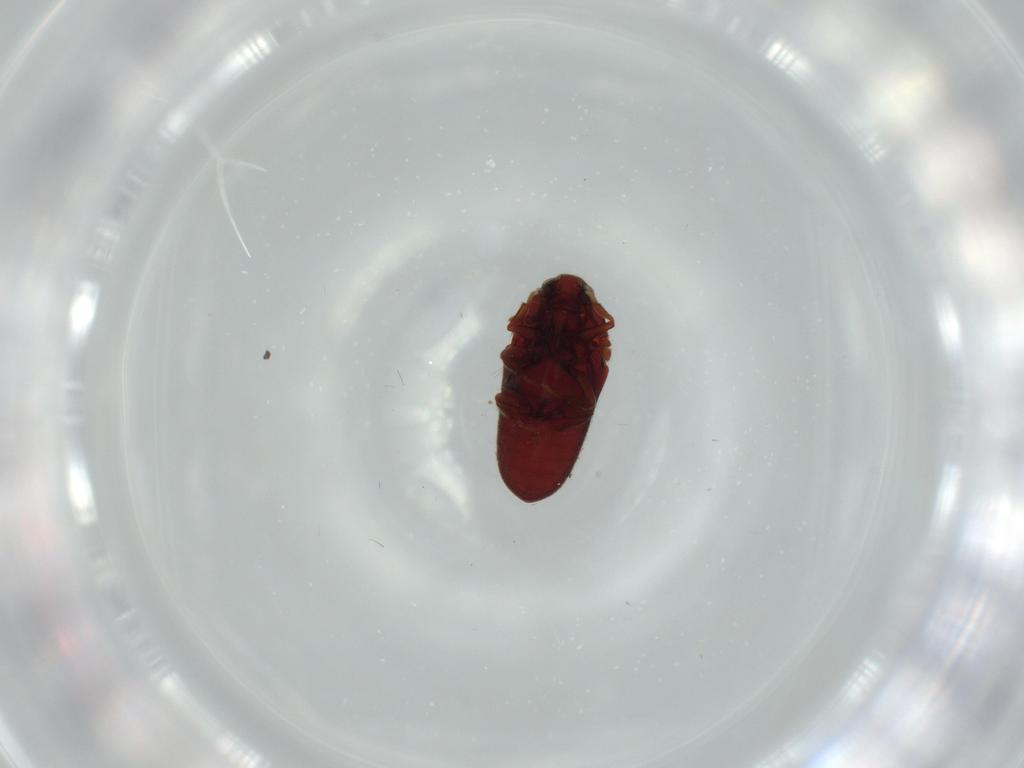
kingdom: Animalia
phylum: Arthropoda
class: Insecta
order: Coleoptera
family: Throscidae
